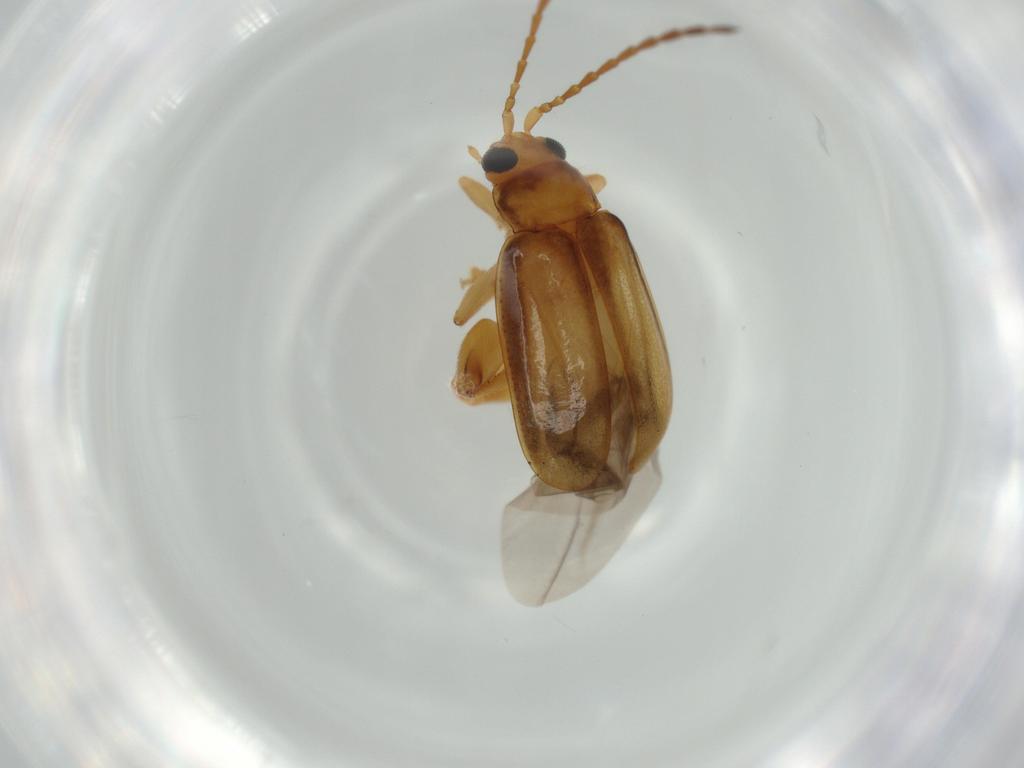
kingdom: Animalia
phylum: Arthropoda
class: Insecta
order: Coleoptera
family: Chrysomelidae
